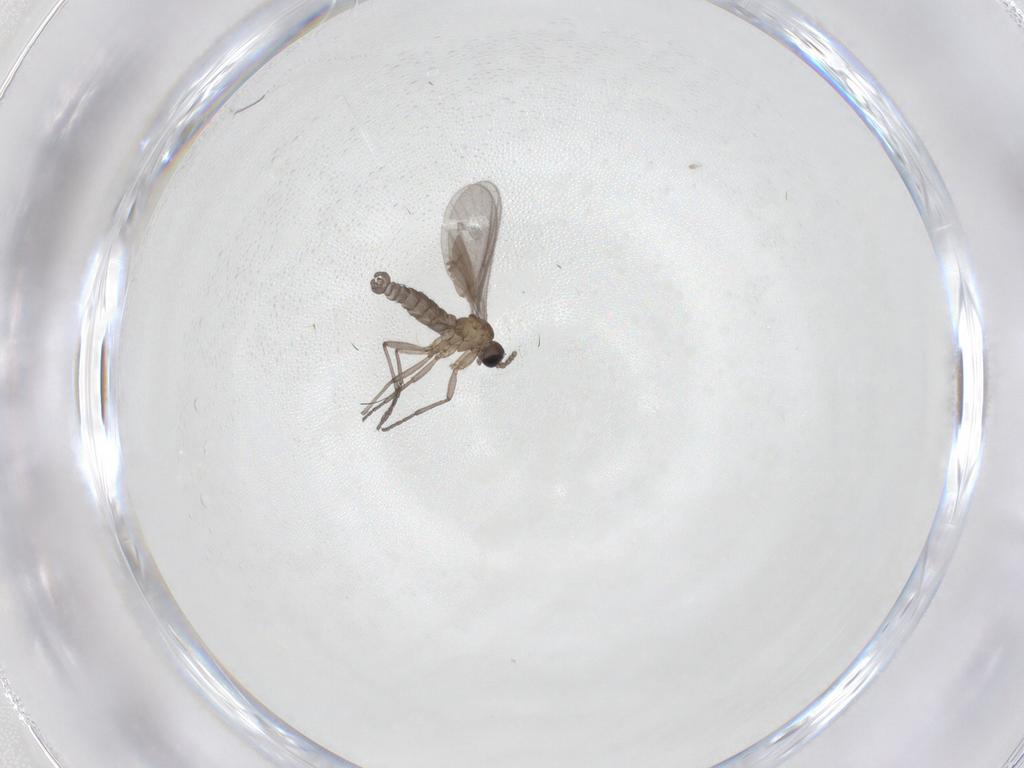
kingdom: Animalia
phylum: Arthropoda
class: Insecta
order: Diptera
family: Sciaridae
